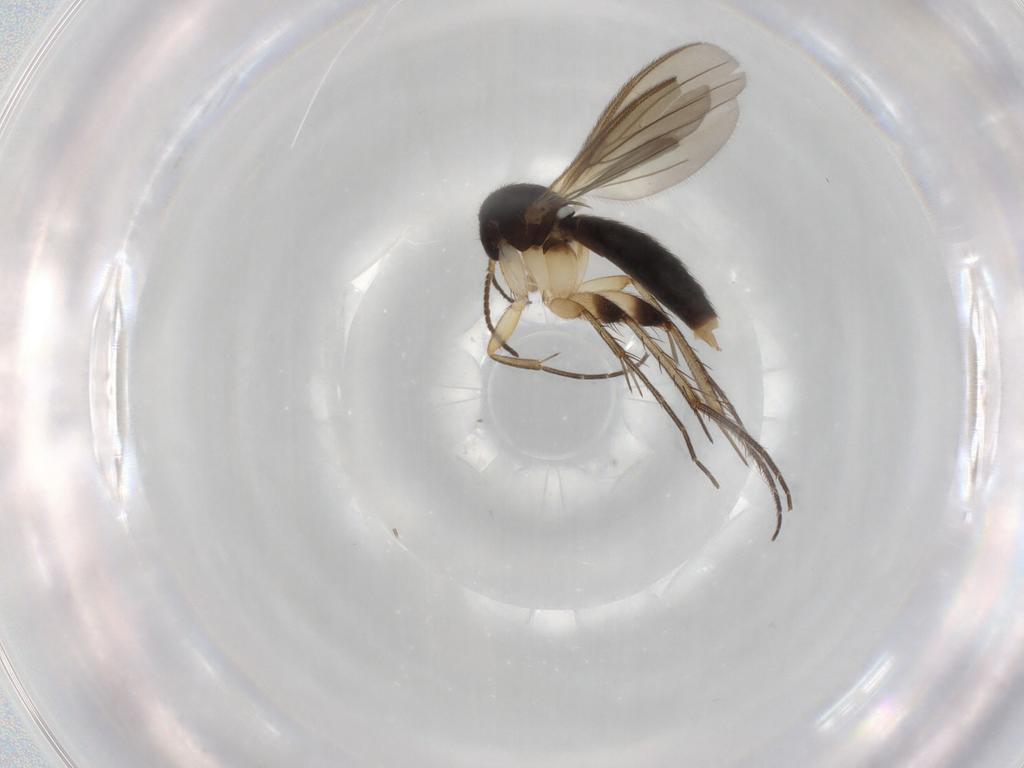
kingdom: Animalia
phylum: Arthropoda
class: Insecta
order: Diptera
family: Mycetophilidae
